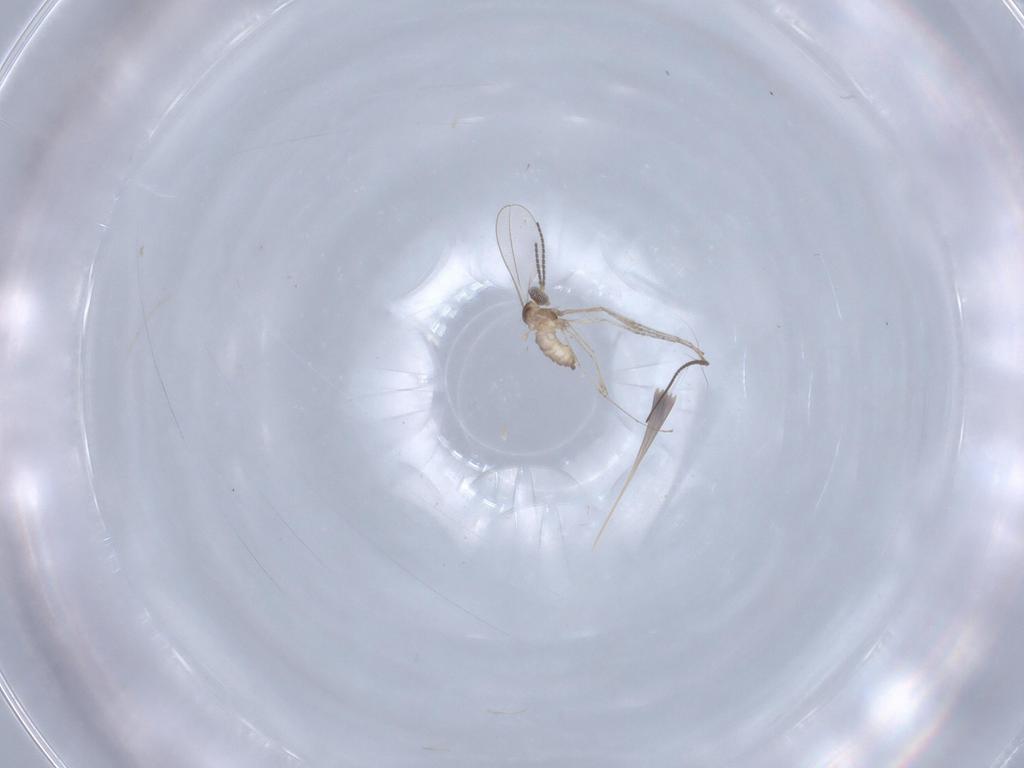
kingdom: Animalia
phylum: Arthropoda
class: Insecta
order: Diptera
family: Cecidomyiidae
